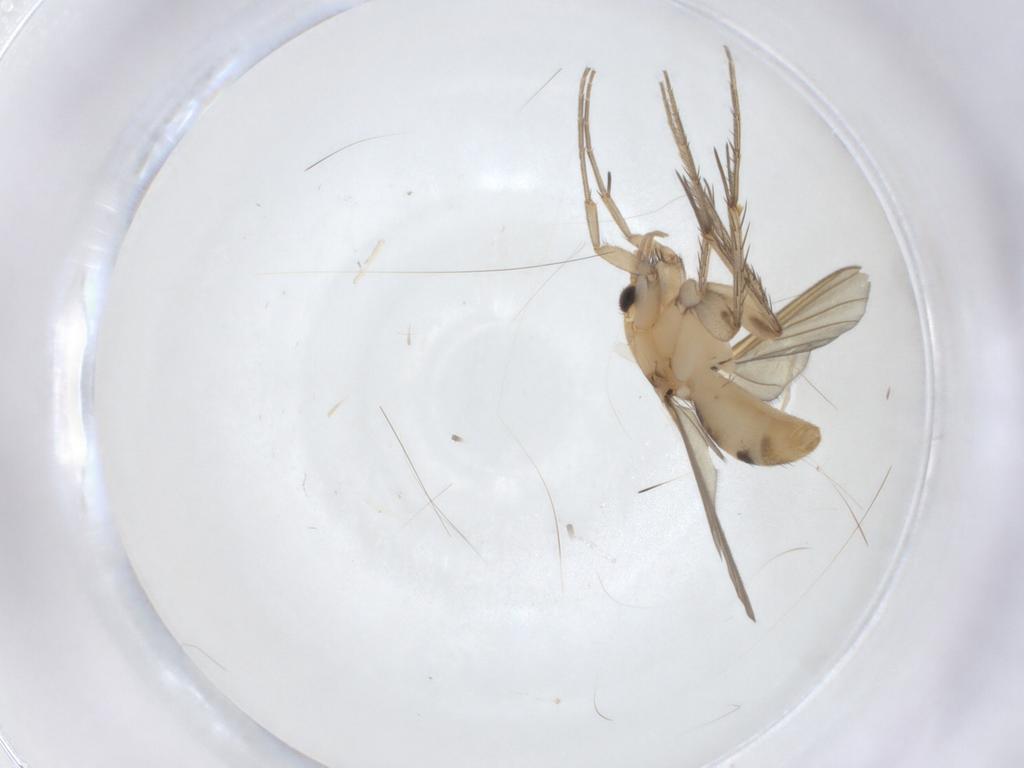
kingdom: Animalia
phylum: Arthropoda
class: Insecta
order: Diptera
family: Mycetophilidae
